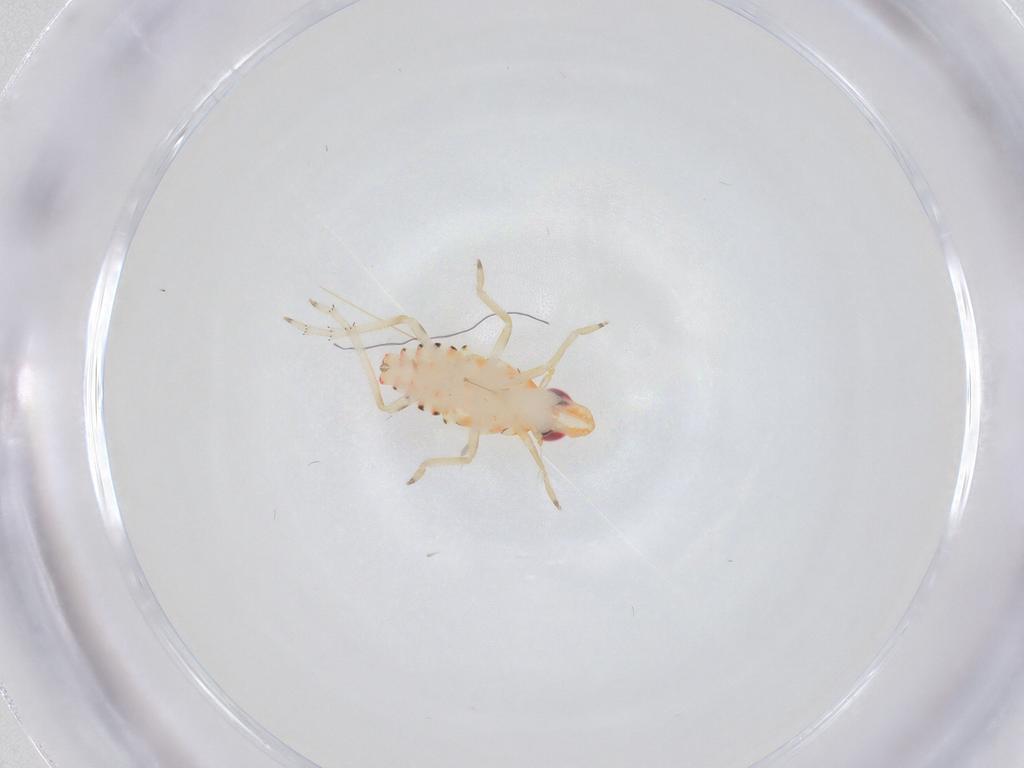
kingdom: Animalia
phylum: Arthropoda
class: Insecta
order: Hemiptera
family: Tropiduchidae
